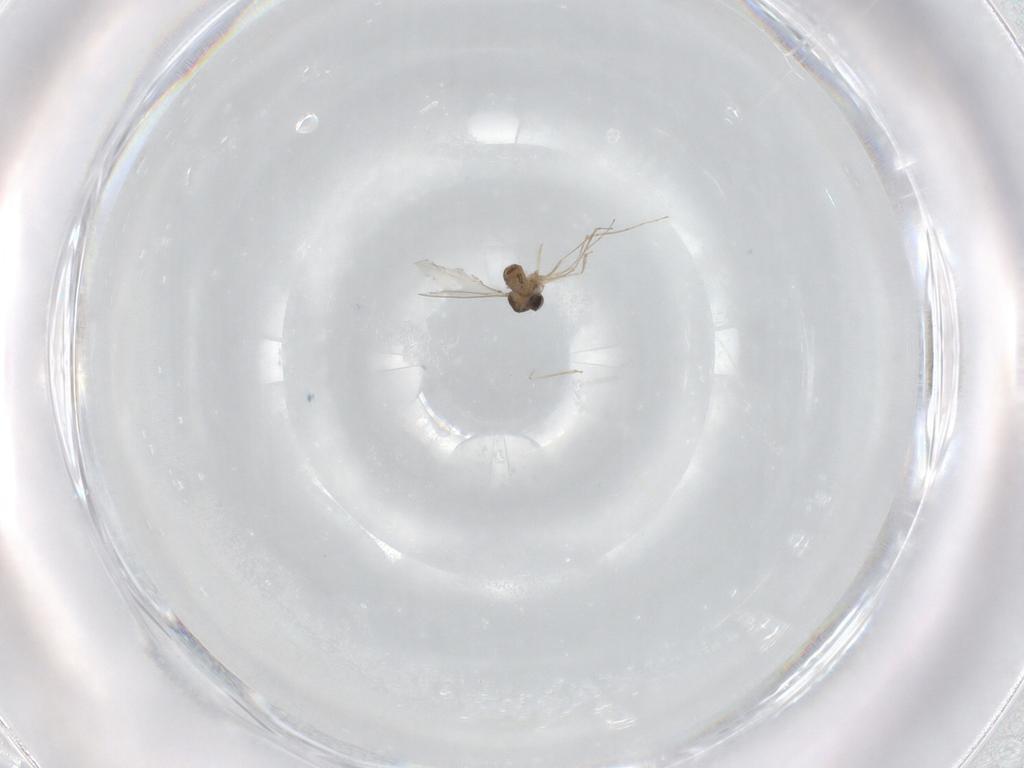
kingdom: Animalia
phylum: Arthropoda
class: Insecta
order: Diptera
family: Cecidomyiidae
